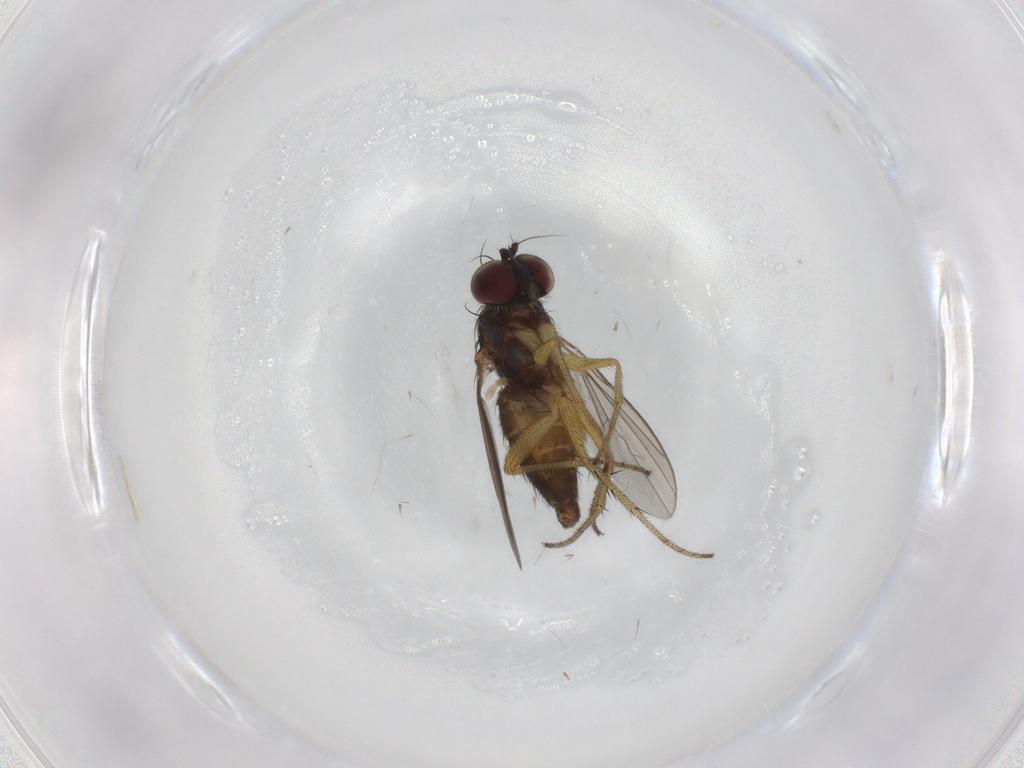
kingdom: Animalia
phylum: Arthropoda
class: Insecta
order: Diptera
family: Dolichopodidae
